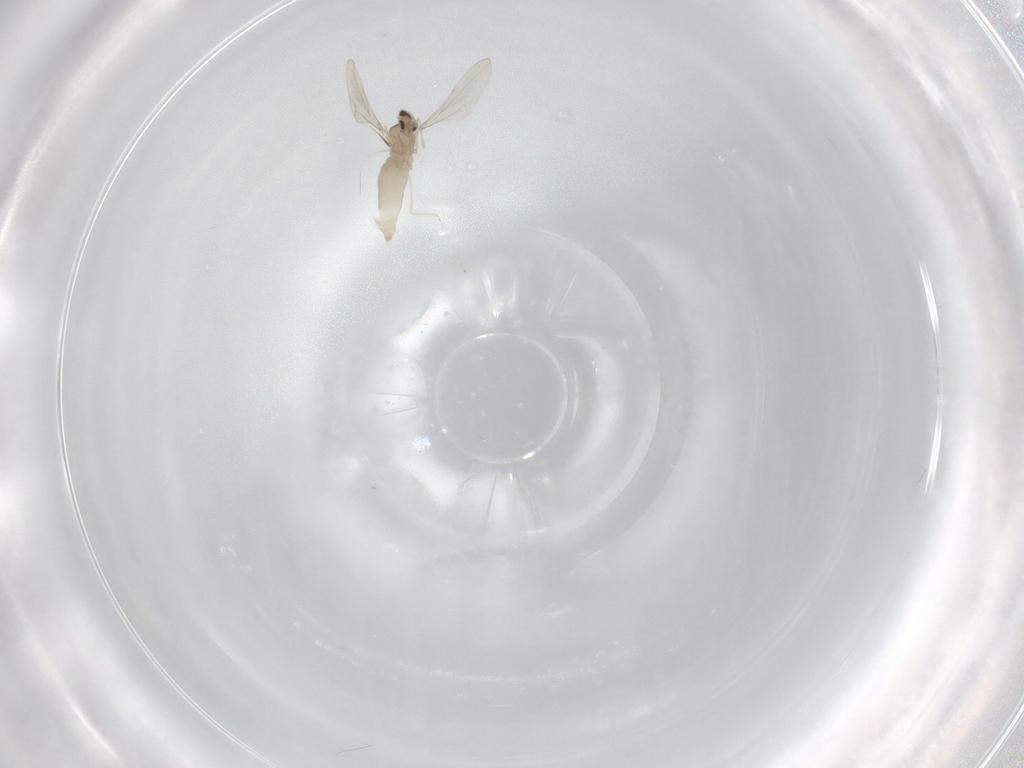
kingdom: Animalia
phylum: Arthropoda
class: Insecta
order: Diptera
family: Cecidomyiidae
